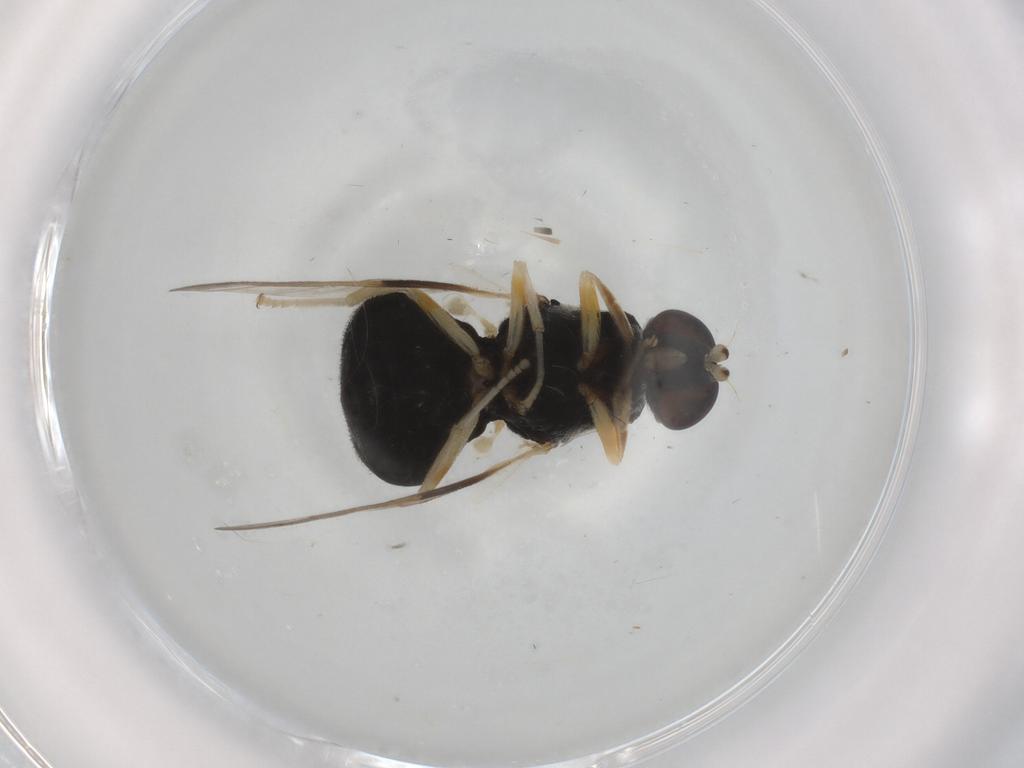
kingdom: Animalia
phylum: Arthropoda
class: Insecta
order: Diptera
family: Stratiomyidae
